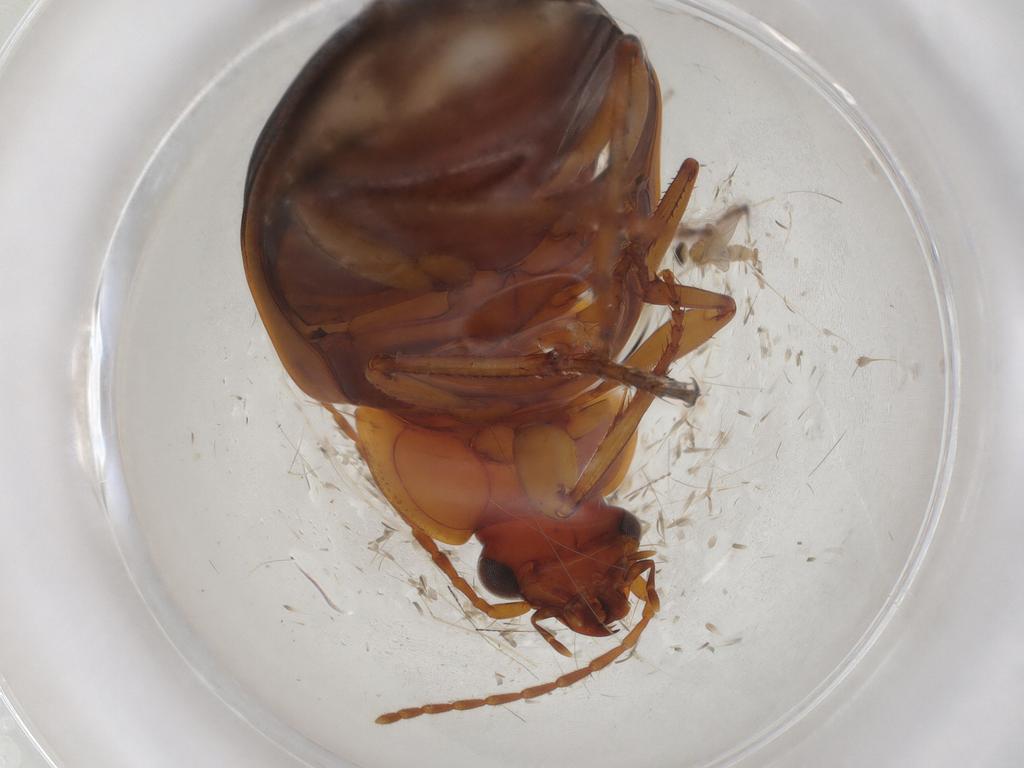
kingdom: Animalia
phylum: Arthropoda
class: Insecta
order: Coleoptera
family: Carabidae
